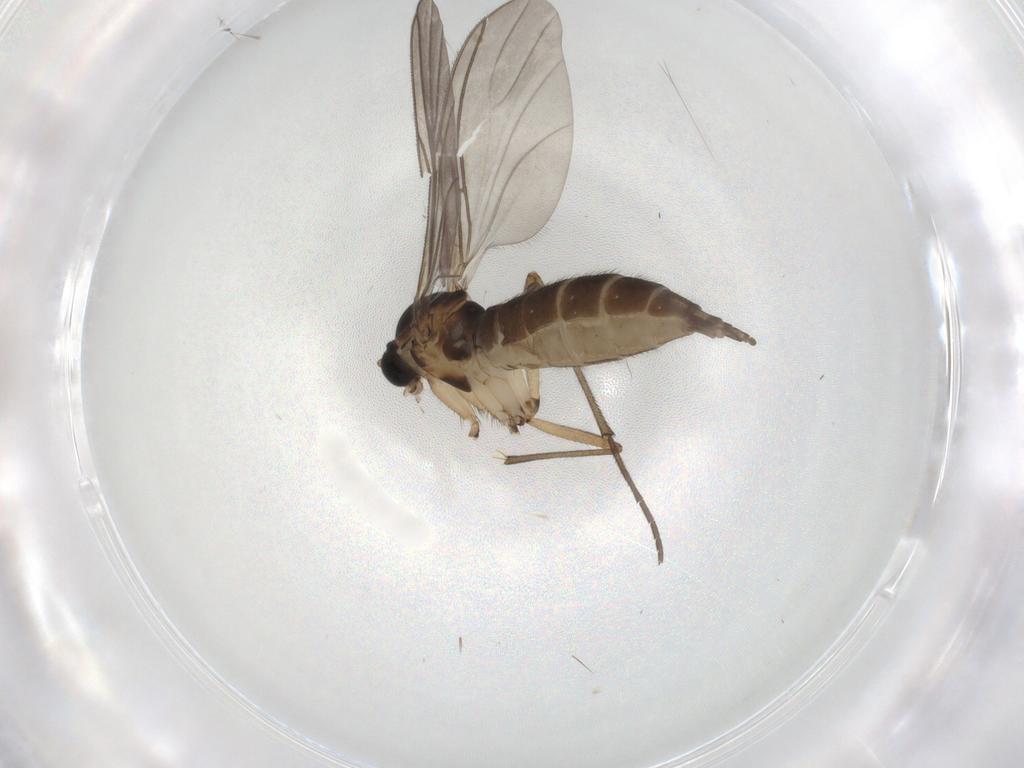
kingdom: Animalia
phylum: Arthropoda
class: Insecta
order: Diptera
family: Sciaridae
